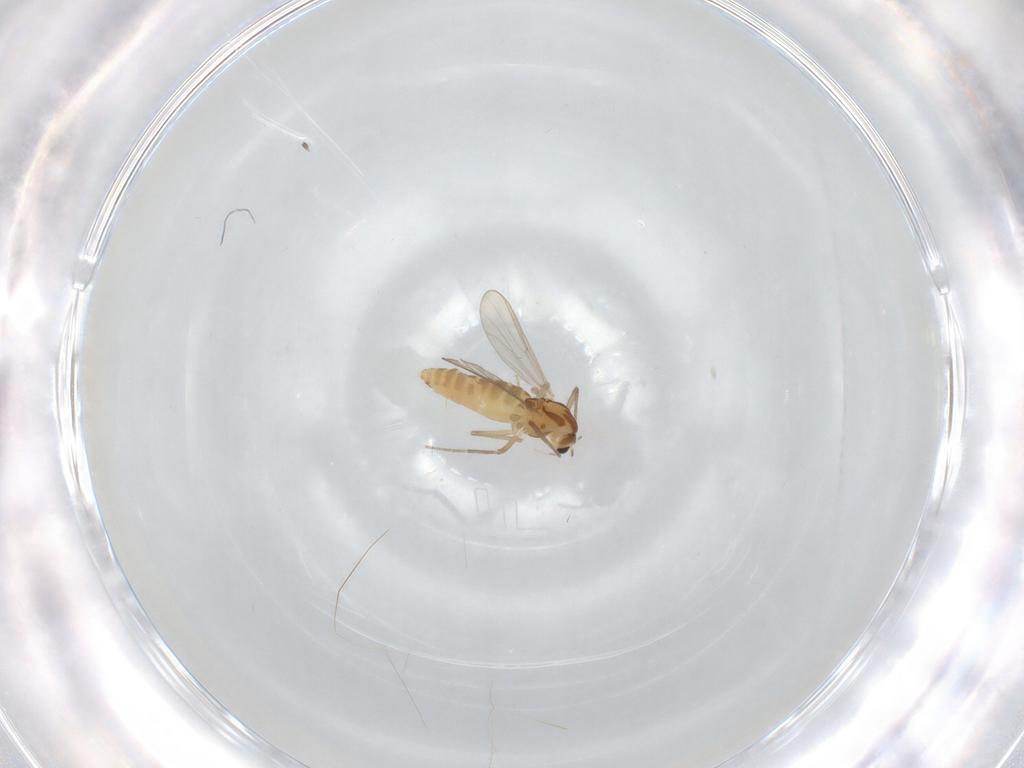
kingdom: Animalia
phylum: Arthropoda
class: Insecta
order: Diptera
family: Chironomidae
